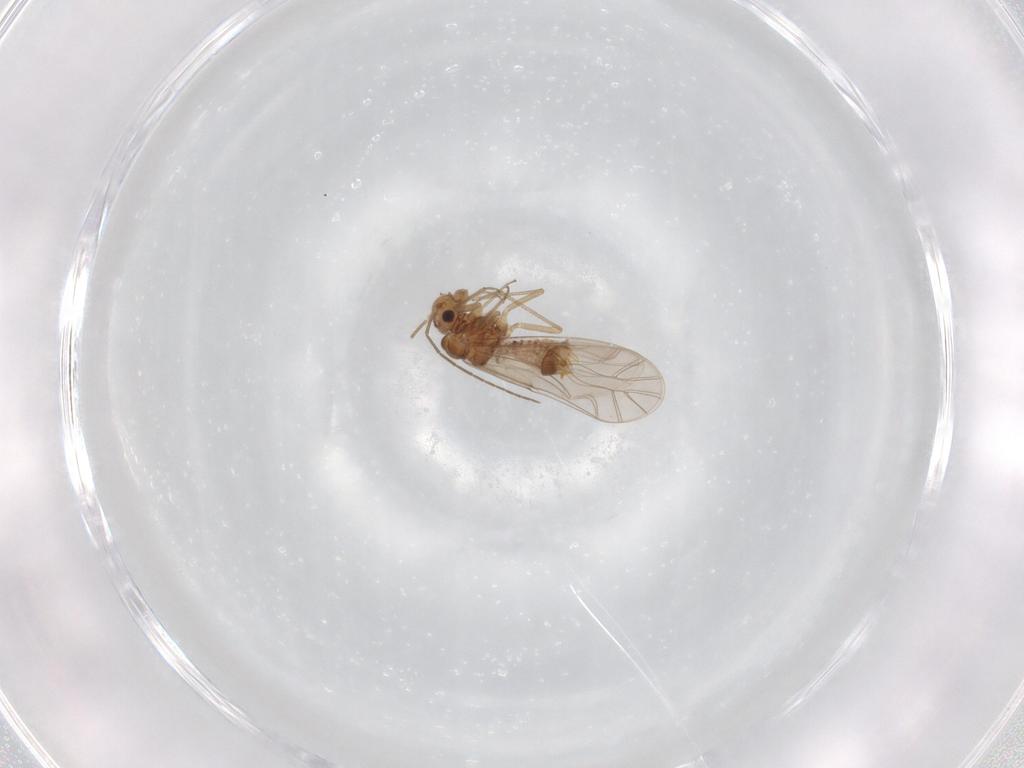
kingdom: Animalia
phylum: Arthropoda
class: Insecta
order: Psocodea
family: Lachesillidae
